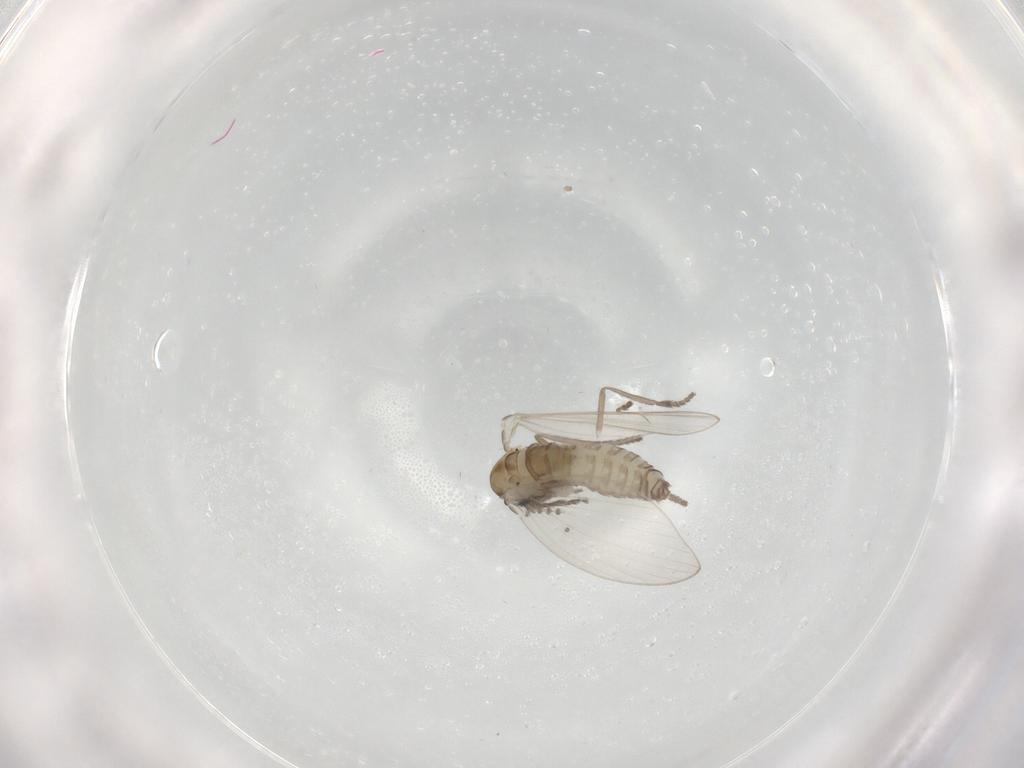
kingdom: Animalia
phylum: Arthropoda
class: Insecta
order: Diptera
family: Psychodidae
